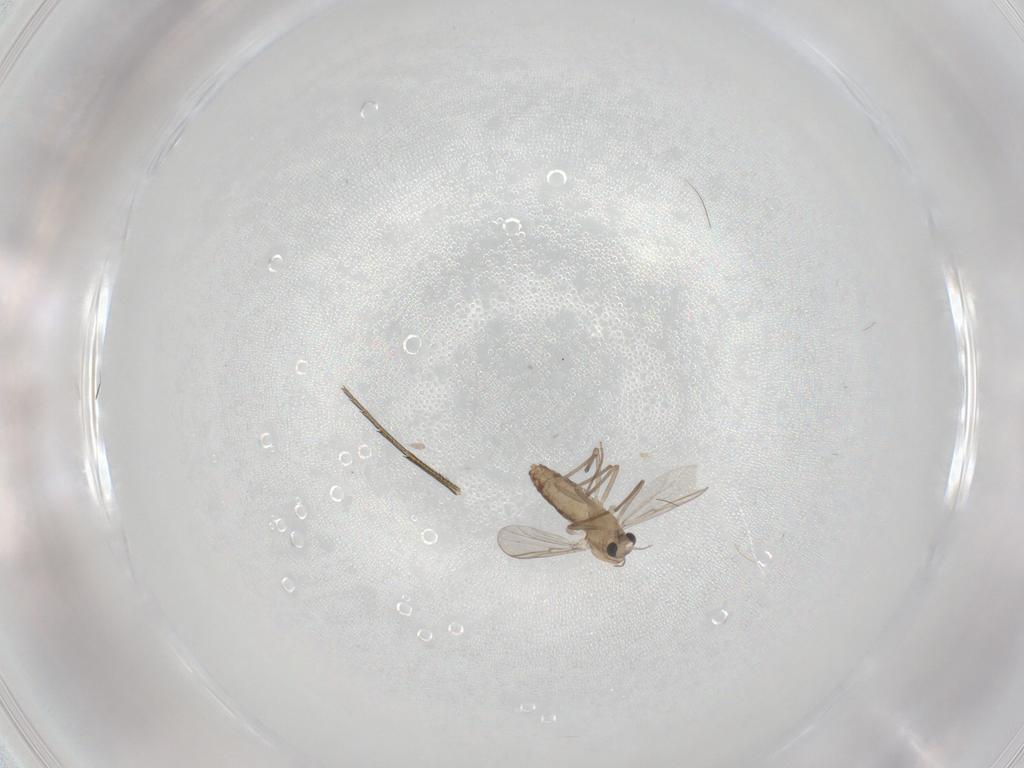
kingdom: Animalia
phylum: Arthropoda
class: Insecta
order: Diptera
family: Chironomidae
